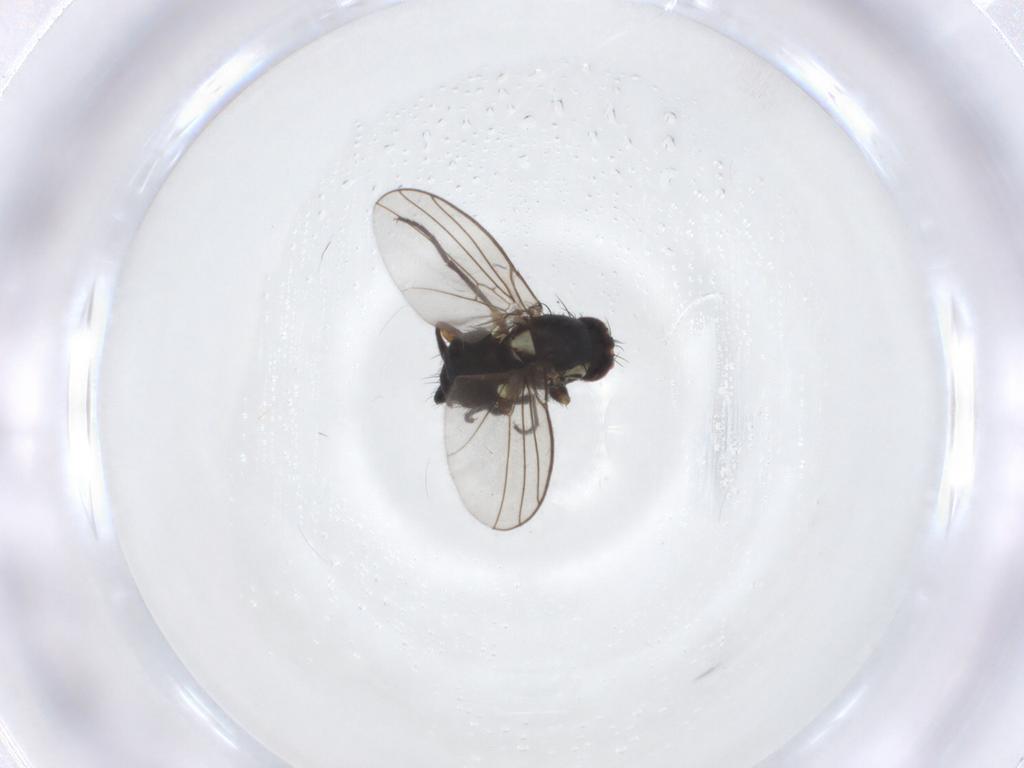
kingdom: Animalia
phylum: Arthropoda
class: Insecta
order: Diptera
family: Agromyzidae
